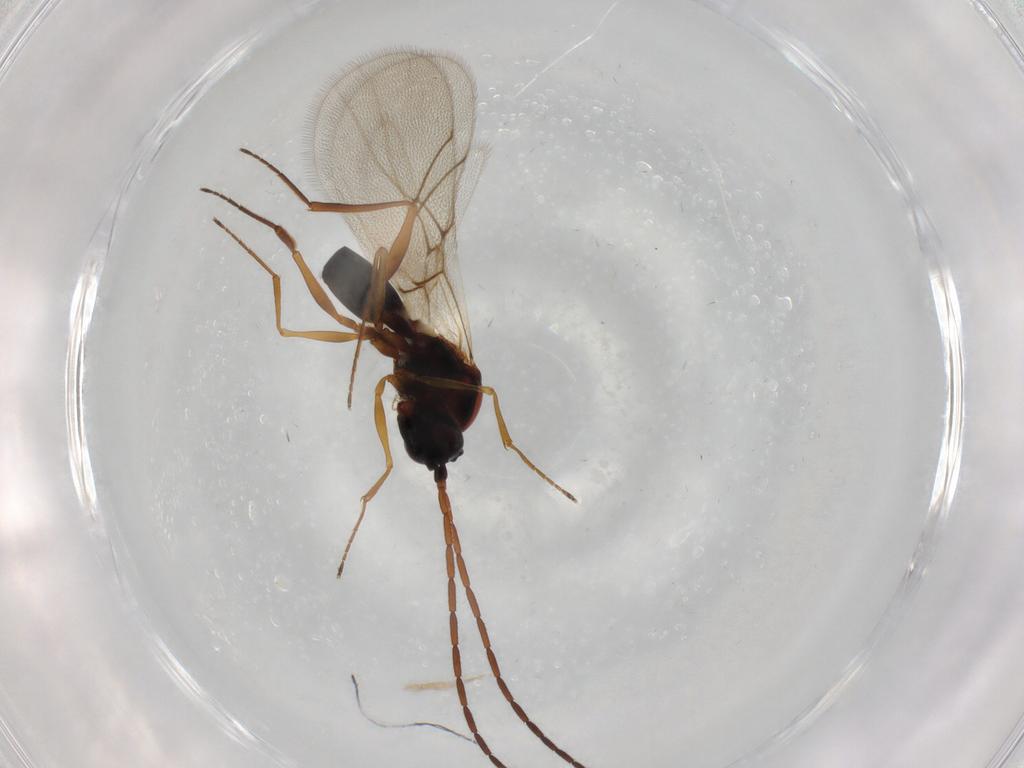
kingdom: Animalia
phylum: Arthropoda
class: Insecta
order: Hymenoptera
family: Figitidae
